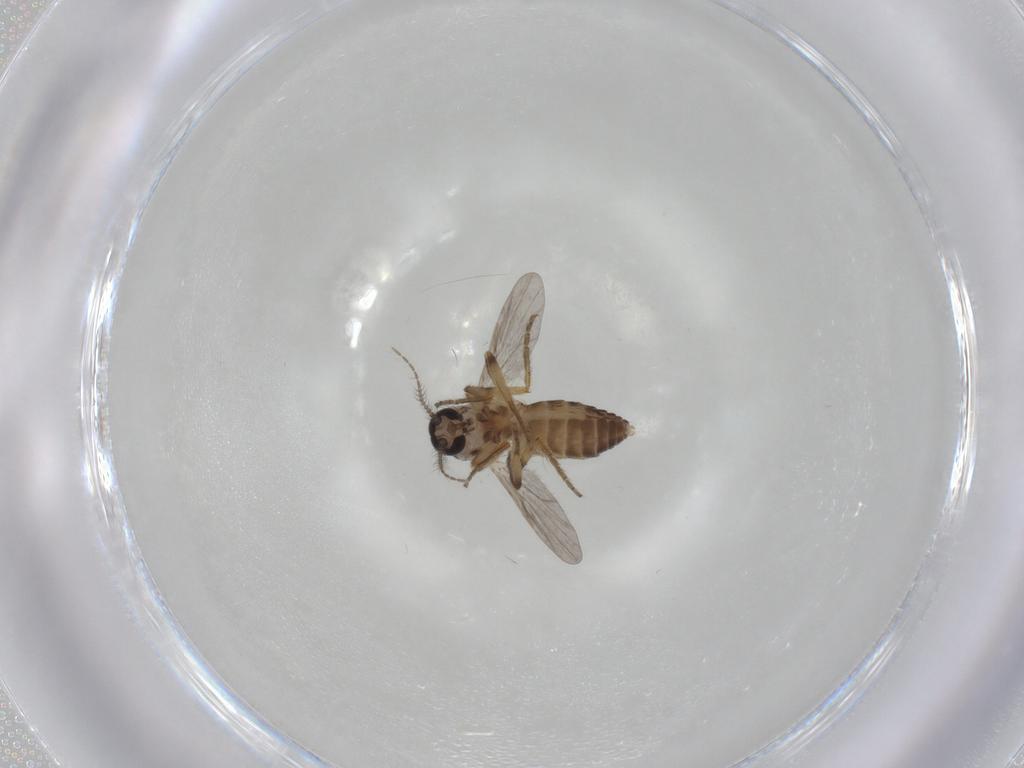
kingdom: Animalia
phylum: Arthropoda
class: Insecta
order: Diptera
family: Ceratopogonidae
